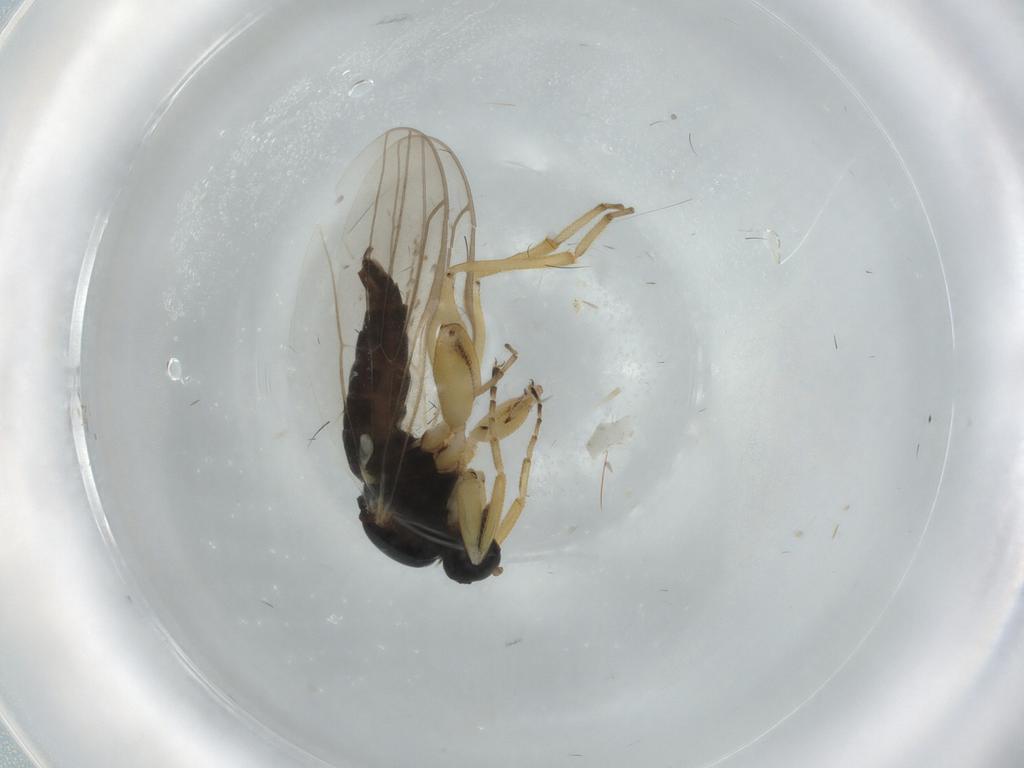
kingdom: Animalia
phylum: Arthropoda
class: Insecta
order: Diptera
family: Empididae
